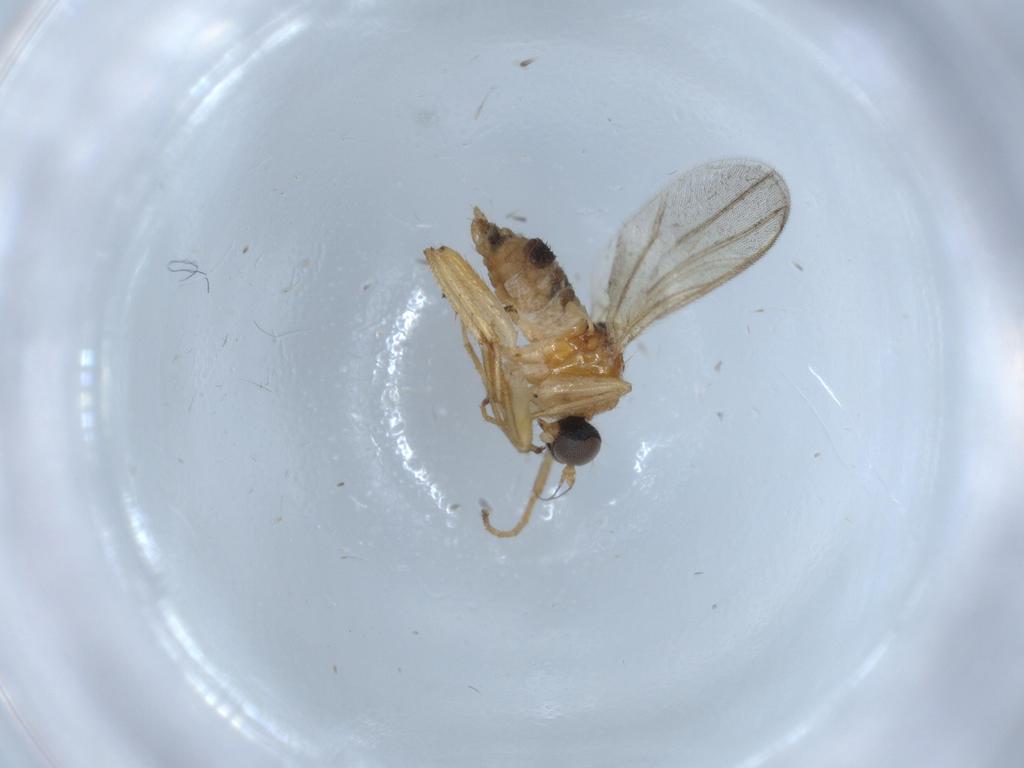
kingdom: Animalia
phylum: Arthropoda
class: Insecta
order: Diptera
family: Hybotidae
